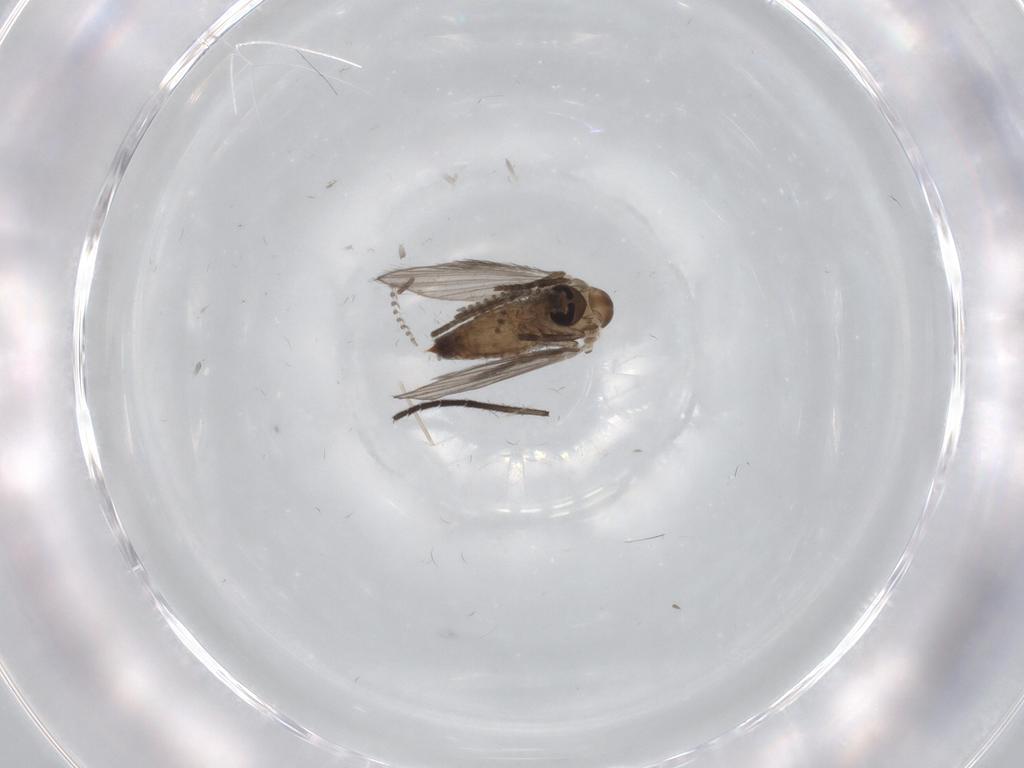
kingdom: Animalia
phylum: Arthropoda
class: Insecta
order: Diptera
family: Psychodidae
